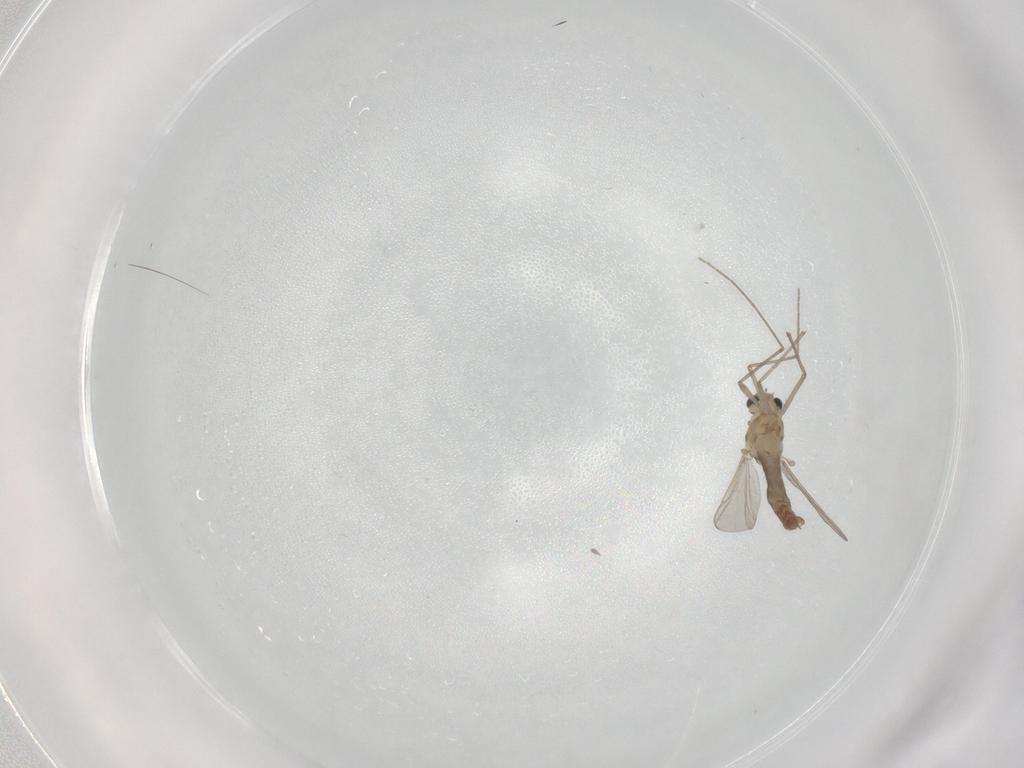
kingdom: Animalia
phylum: Arthropoda
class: Insecta
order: Diptera
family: Chironomidae
